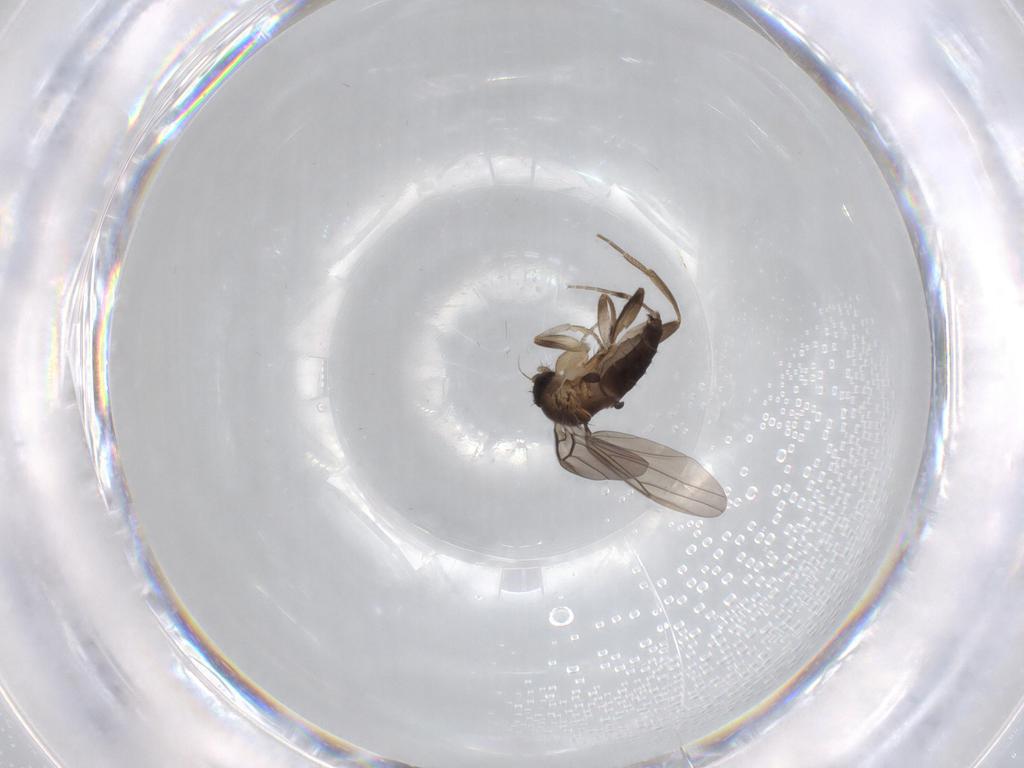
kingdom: Animalia
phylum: Arthropoda
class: Insecta
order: Diptera
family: Phoridae
